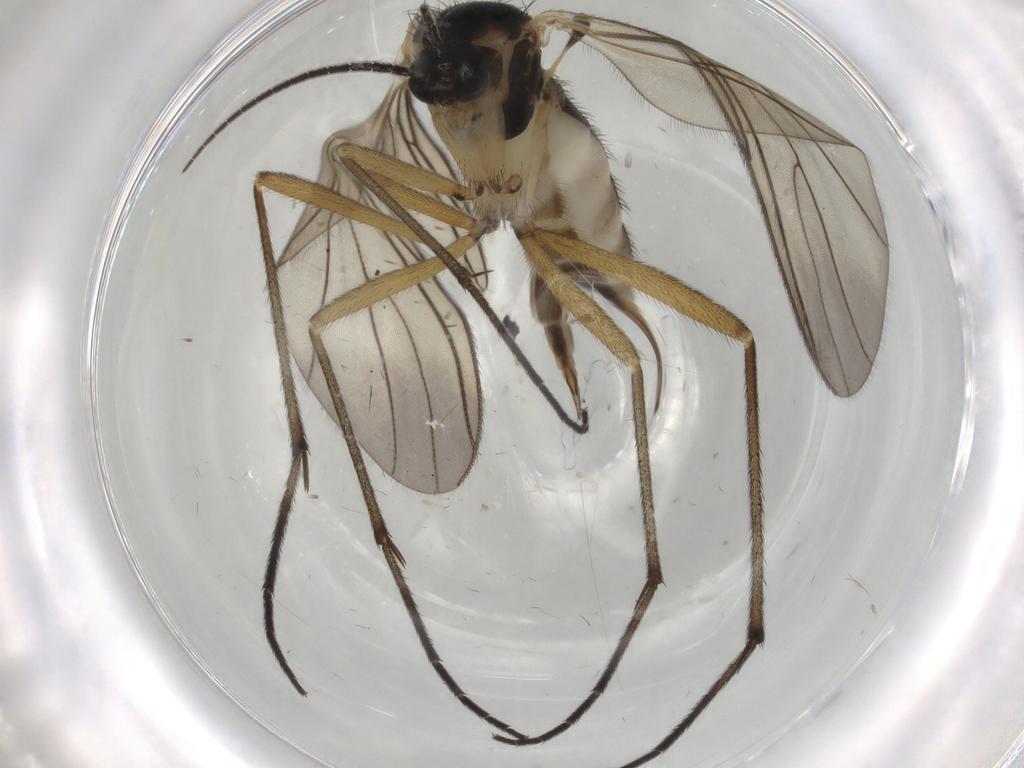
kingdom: Animalia
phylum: Arthropoda
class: Insecta
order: Diptera
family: Sciaridae
